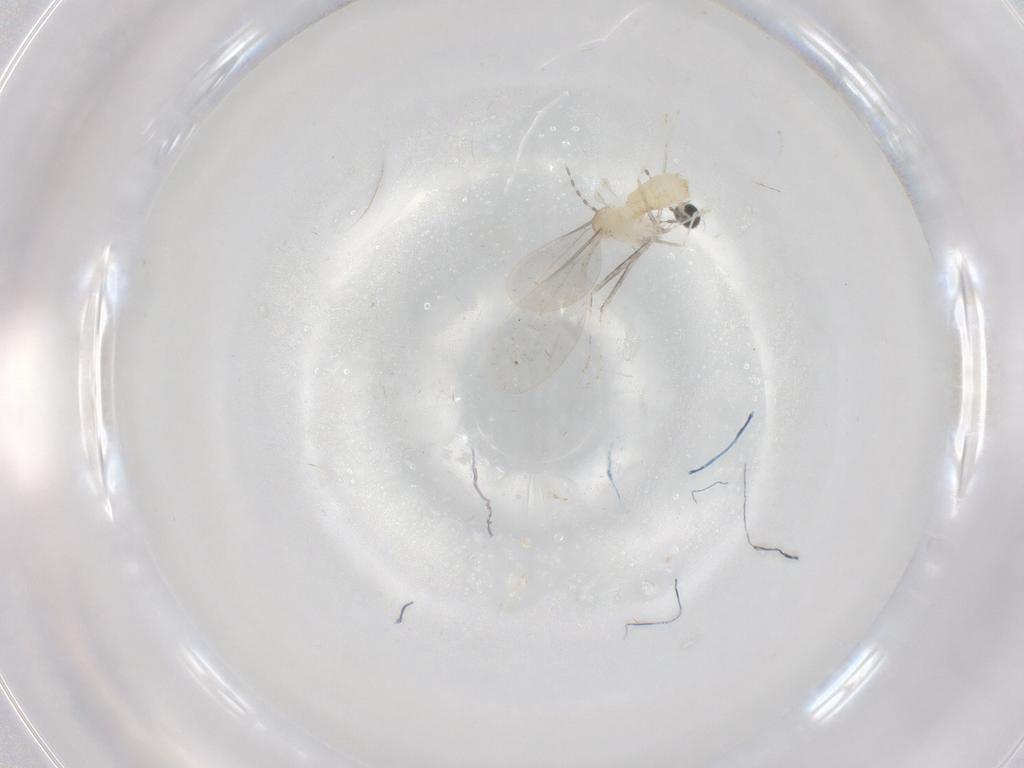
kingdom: Animalia
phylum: Arthropoda
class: Insecta
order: Diptera
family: Cecidomyiidae
